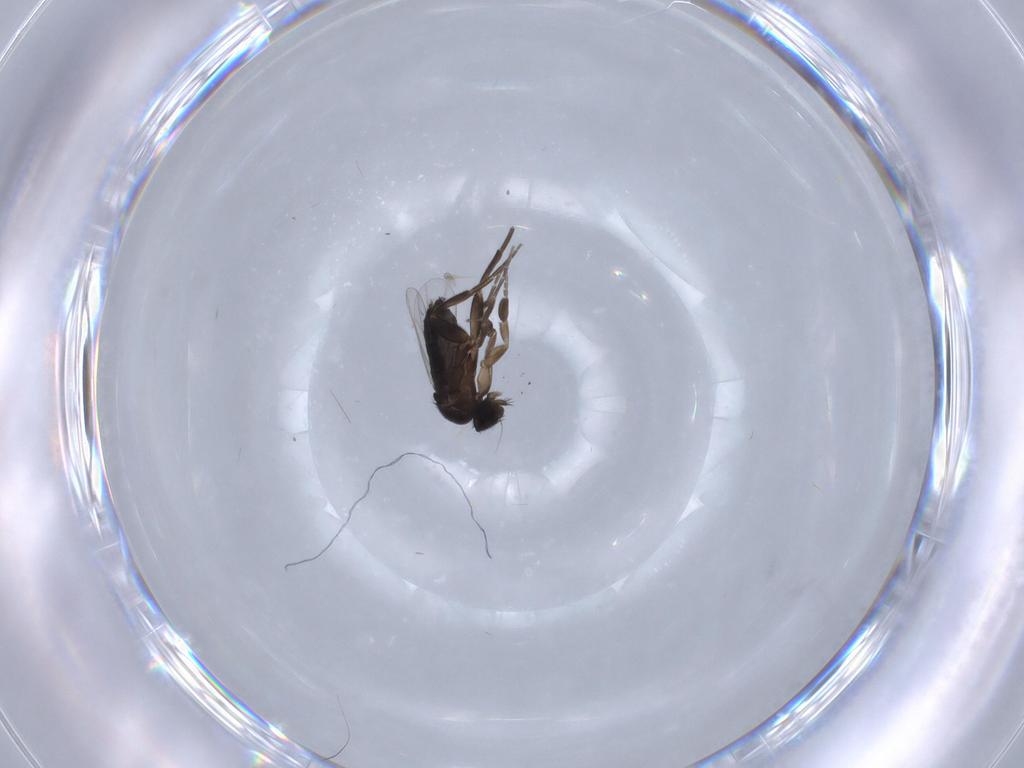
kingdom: Animalia
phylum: Arthropoda
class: Insecta
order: Diptera
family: Phoridae
